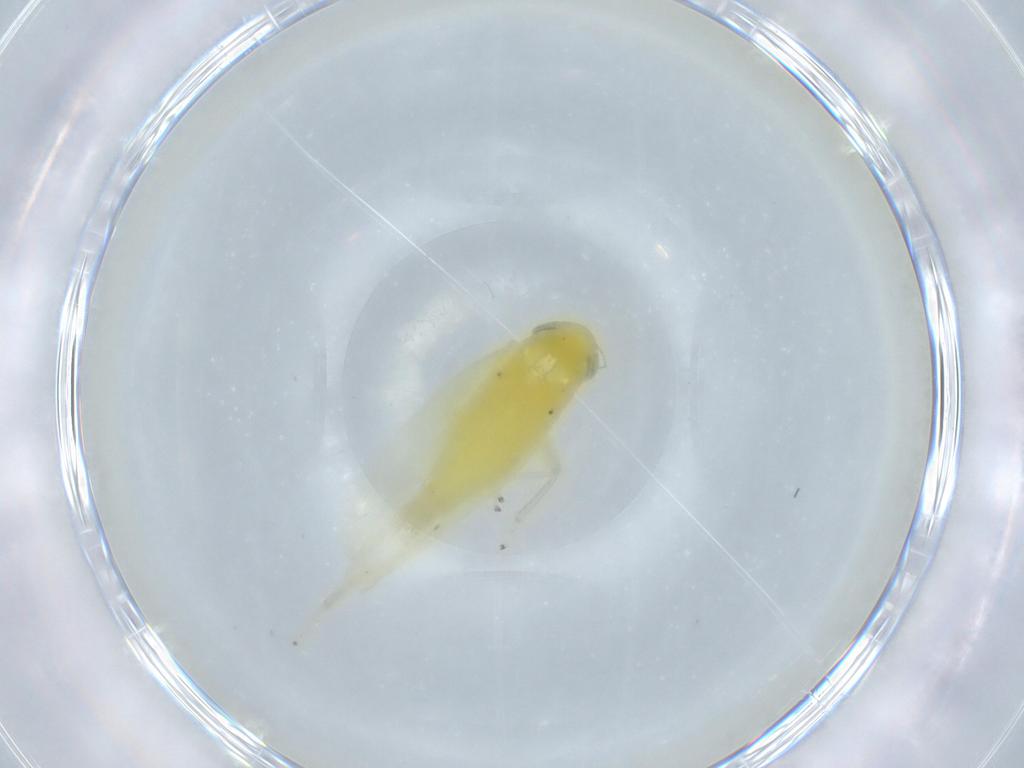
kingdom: Animalia
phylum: Arthropoda
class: Insecta
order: Hemiptera
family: Cicadellidae
